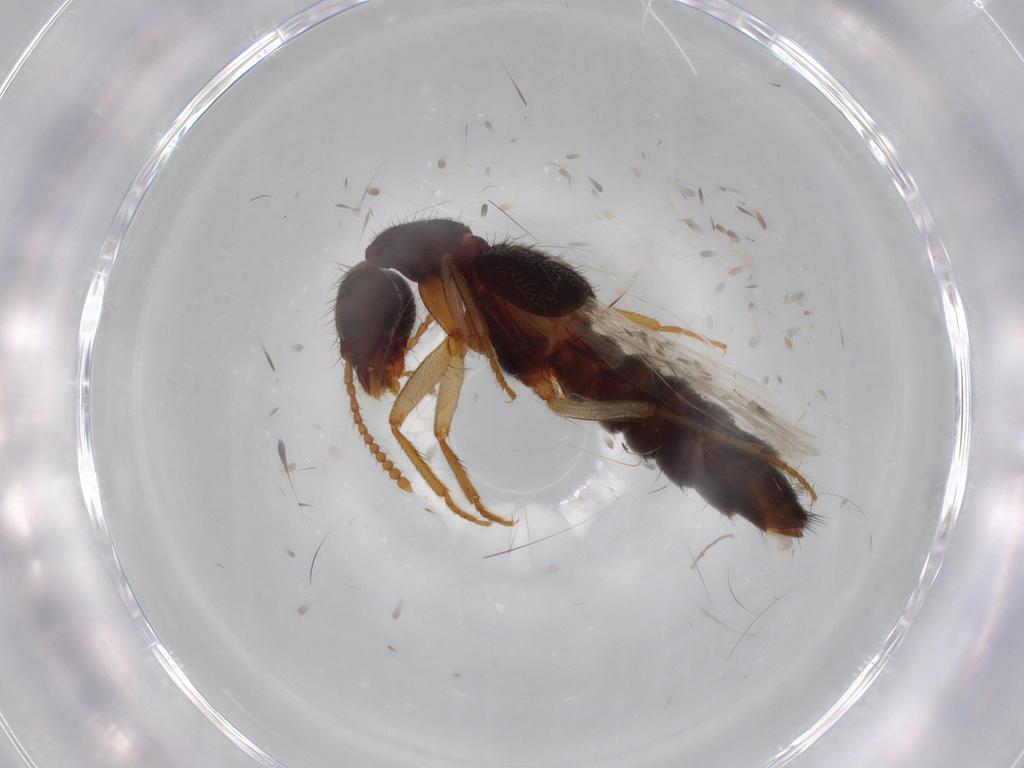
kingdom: Animalia
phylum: Arthropoda
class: Insecta
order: Coleoptera
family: Staphylinidae
